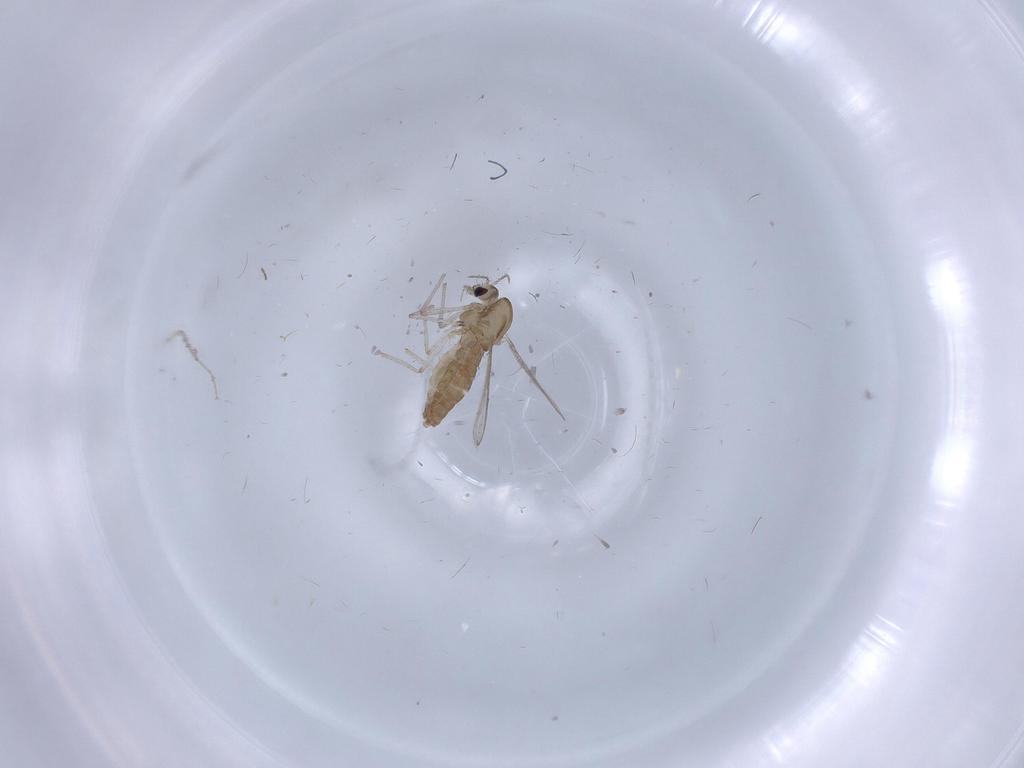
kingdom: Animalia
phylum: Arthropoda
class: Insecta
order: Diptera
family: Chironomidae
